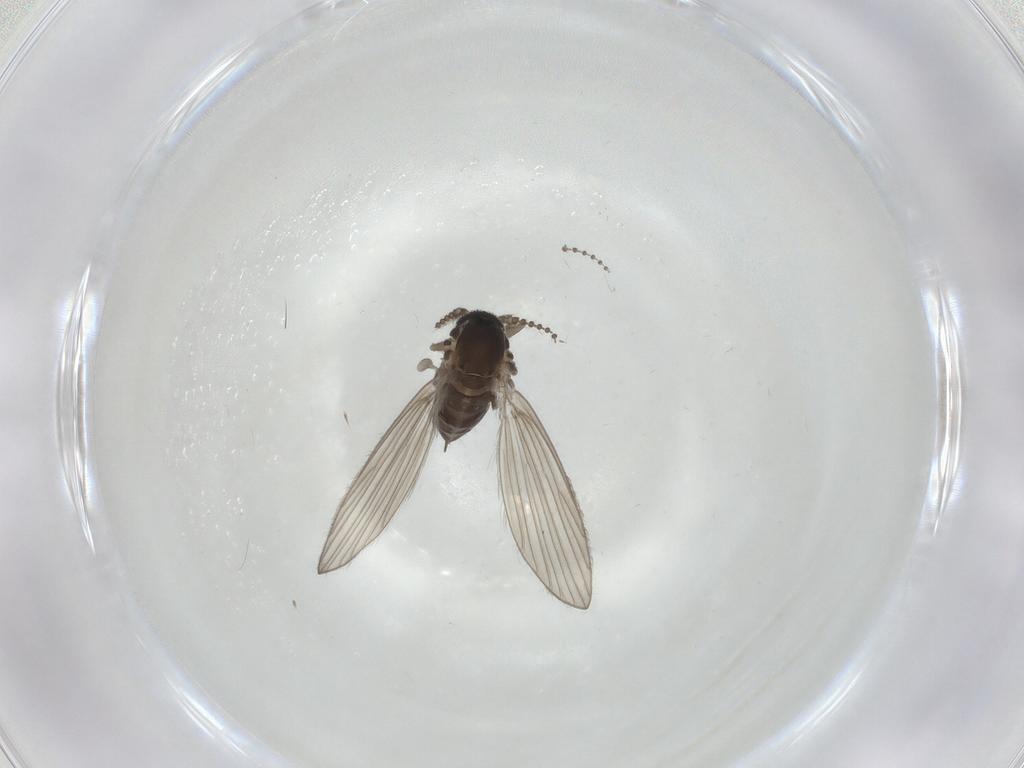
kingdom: Animalia
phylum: Arthropoda
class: Insecta
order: Diptera
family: Psychodidae
